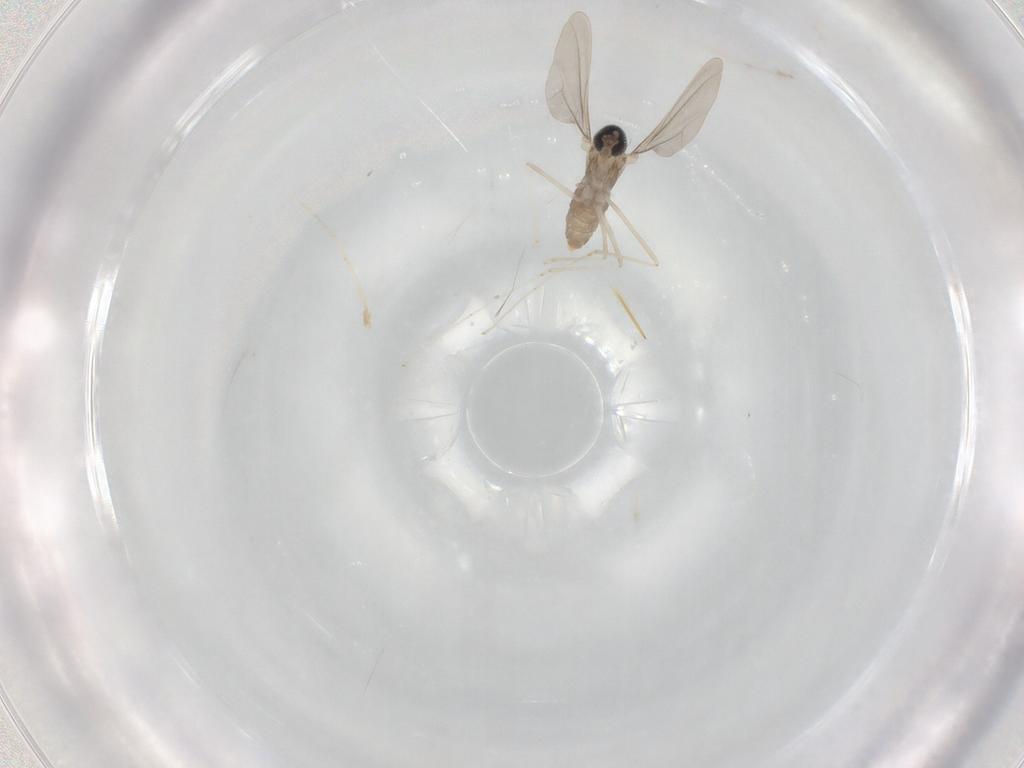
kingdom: Animalia
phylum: Arthropoda
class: Insecta
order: Diptera
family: Cecidomyiidae
